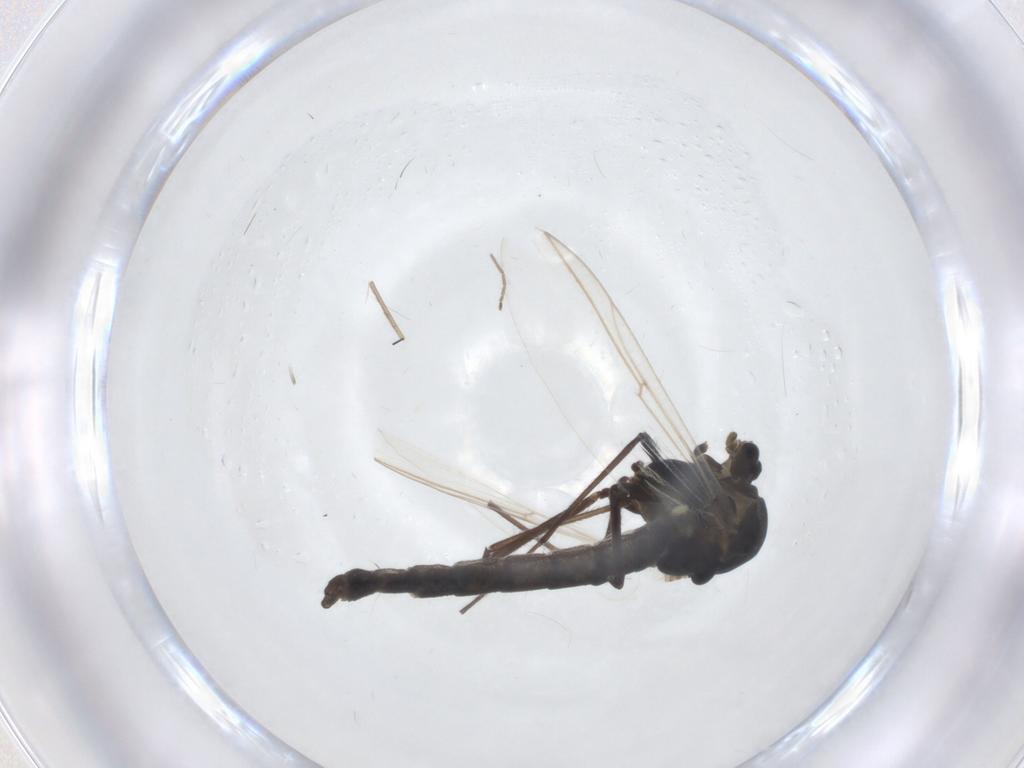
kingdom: Animalia
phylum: Arthropoda
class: Insecta
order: Diptera
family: Chironomidae
